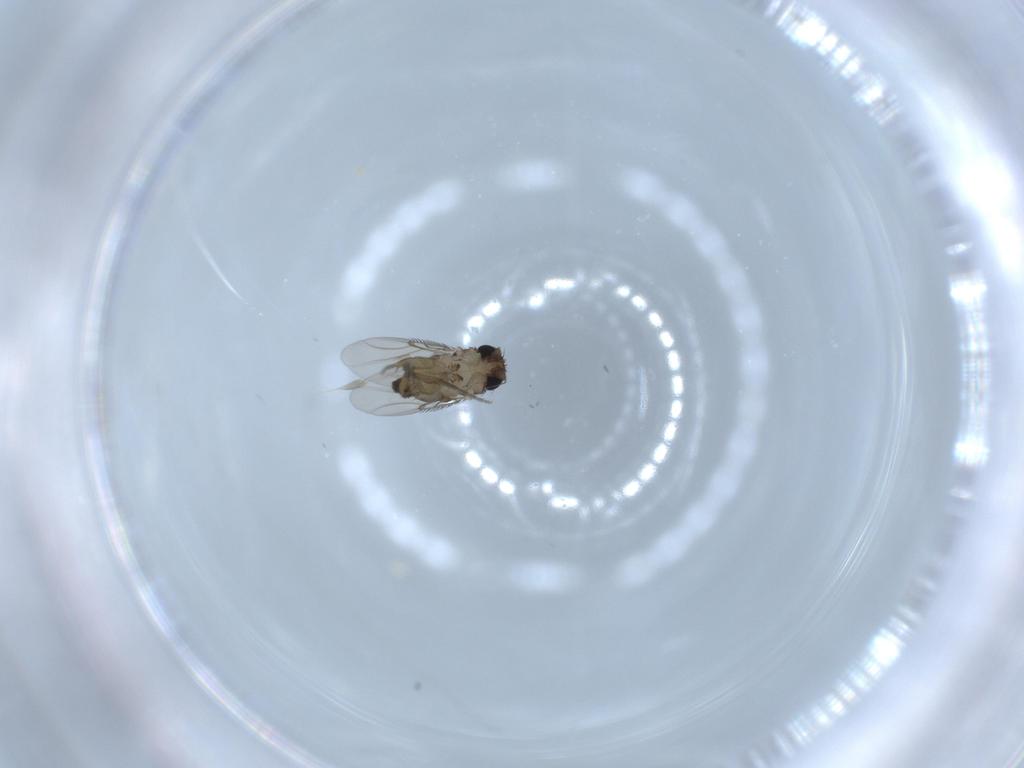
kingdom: Animalia
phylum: Arthropoda
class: Insecta
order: Diptera
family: Phoridae
